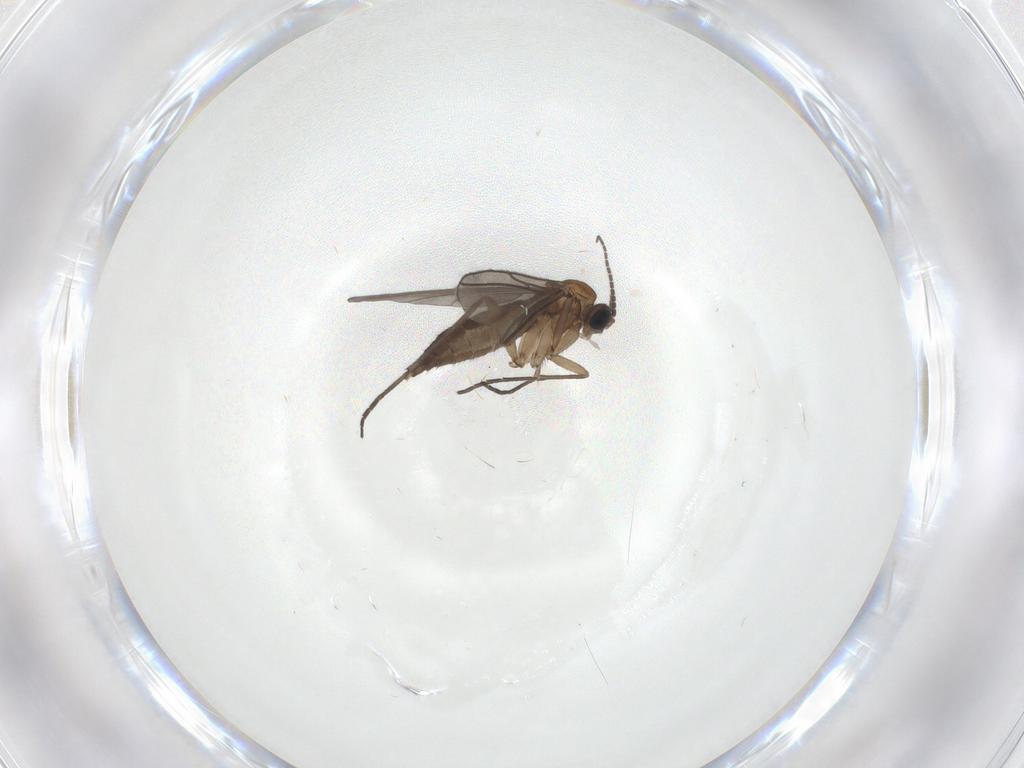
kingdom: Animalia
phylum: Arthropoda
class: Insecta
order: Diptera
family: Sciaridae
